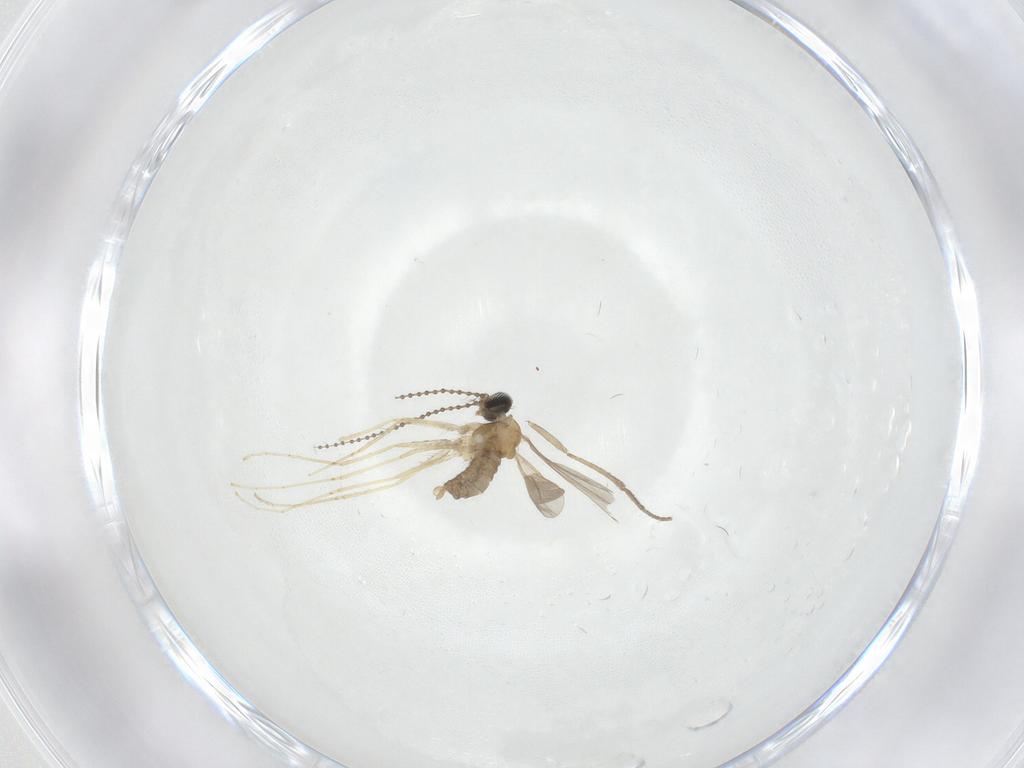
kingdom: Animalia
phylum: Arthropoda
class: Insecta
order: Diptera
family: Cecidomyiidae
